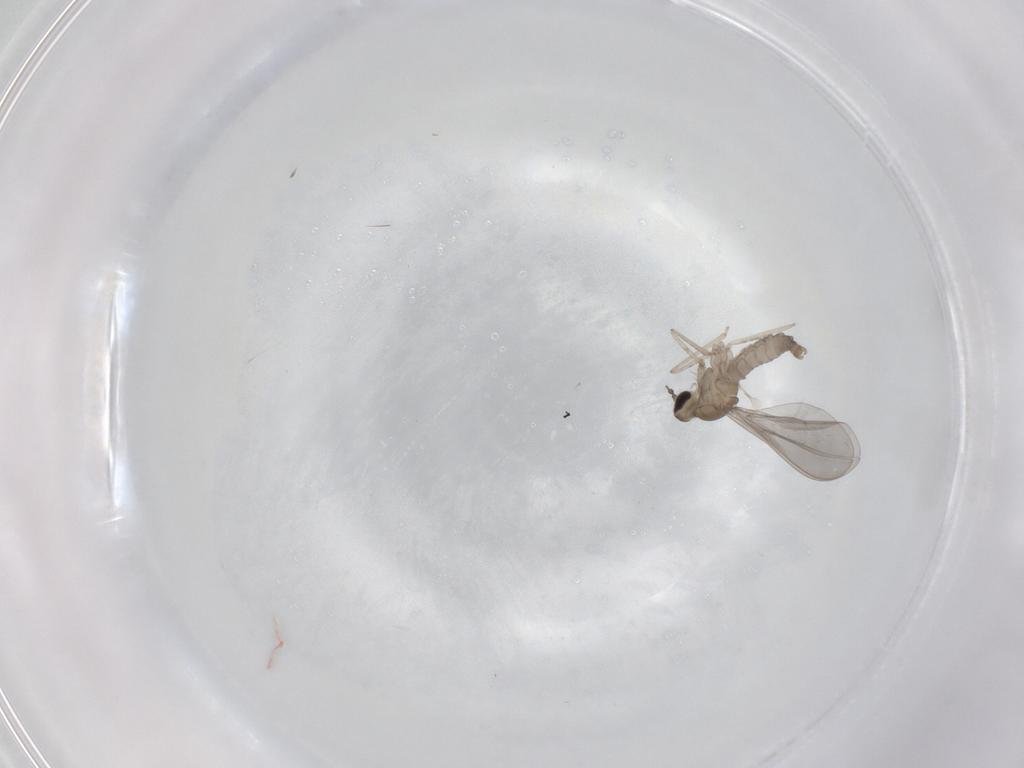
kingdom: Animalia
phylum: Arthropoda
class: Insecta
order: Diptera
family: Cecidomyiidae
